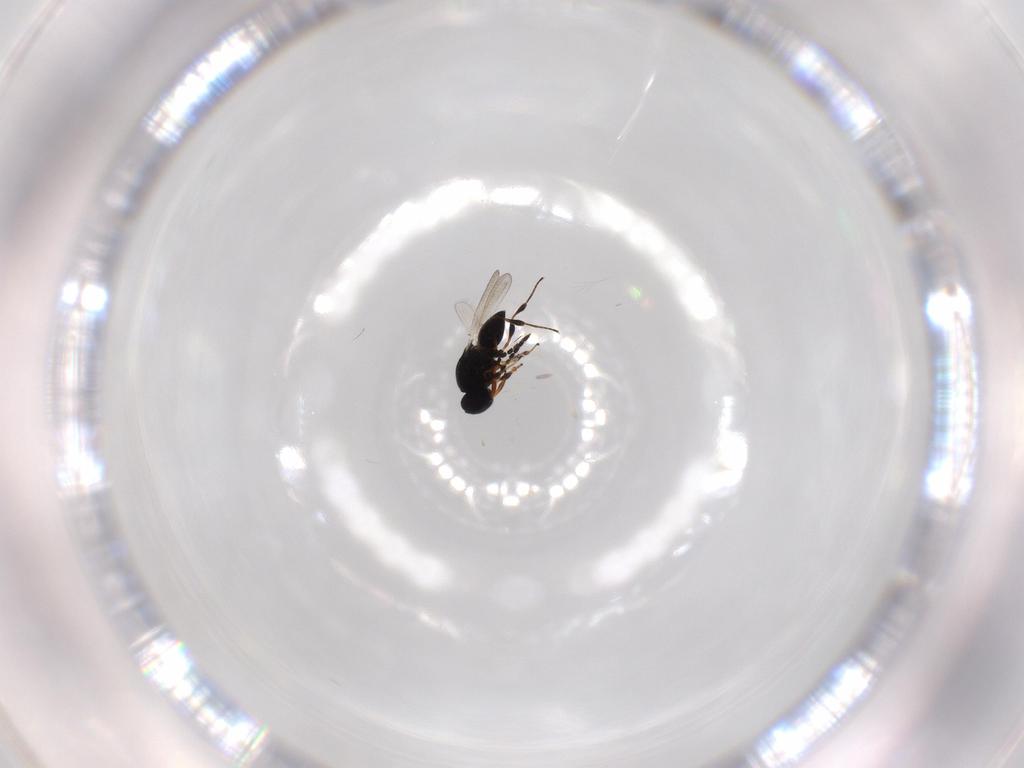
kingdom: Animalia
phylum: Arthropoda
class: Insecta
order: Hymenoptera
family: Platygastridae
